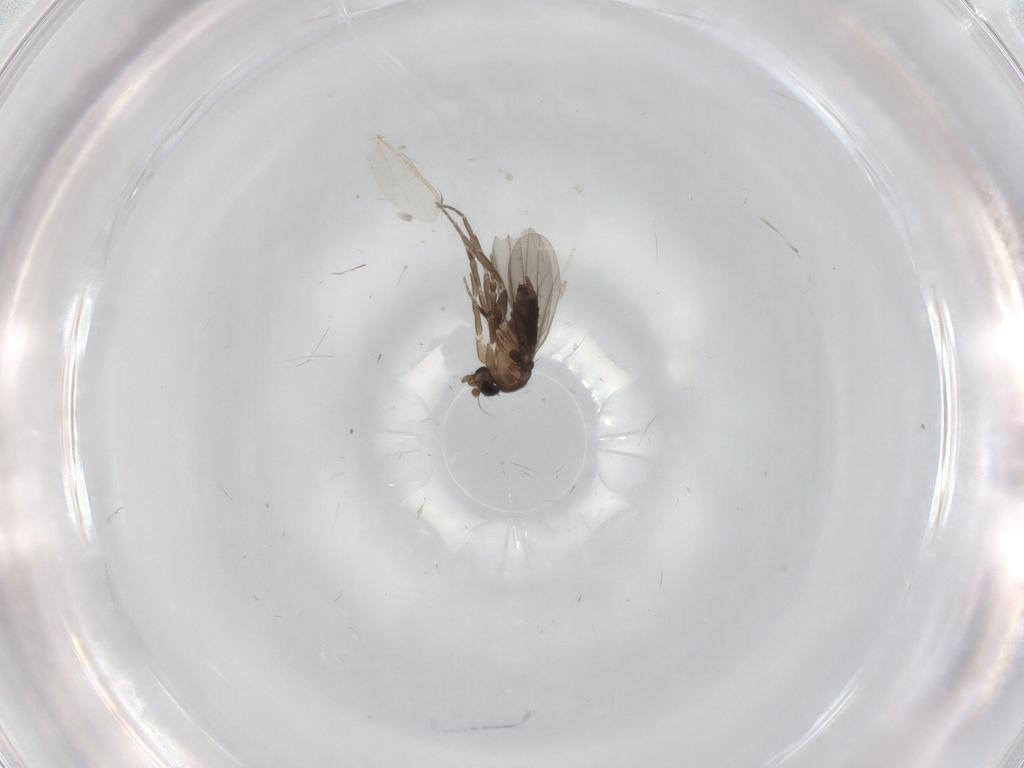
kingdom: Animalia
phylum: Arthropoda
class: Insecta
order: Diptera
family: Phoridae
